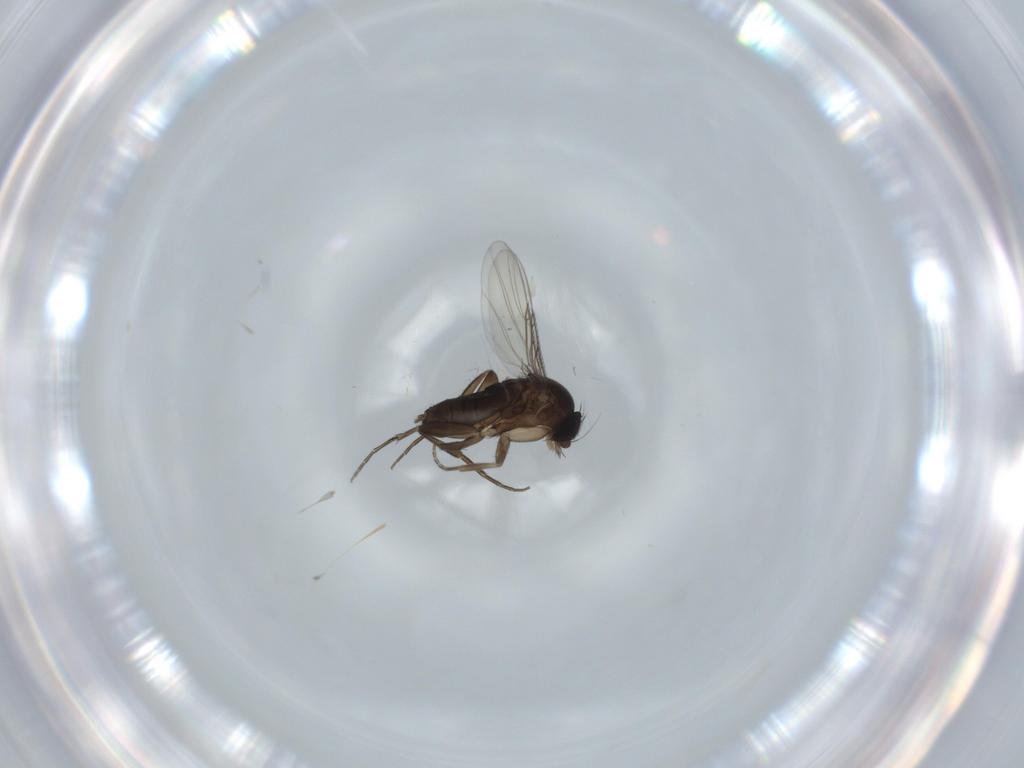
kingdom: Animalia
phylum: Arthropoda
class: Insecta
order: Diptera
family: Phoridae
